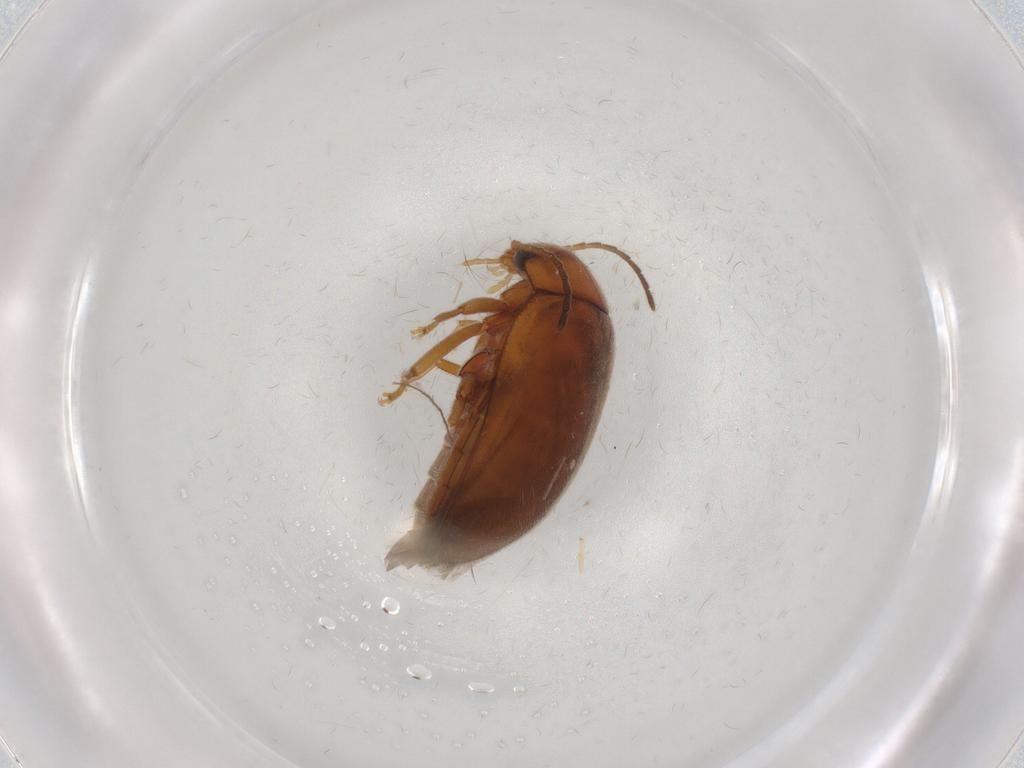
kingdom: Animalia
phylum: Arthropoda
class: Insecta
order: Coleoptera
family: Scirtidae
